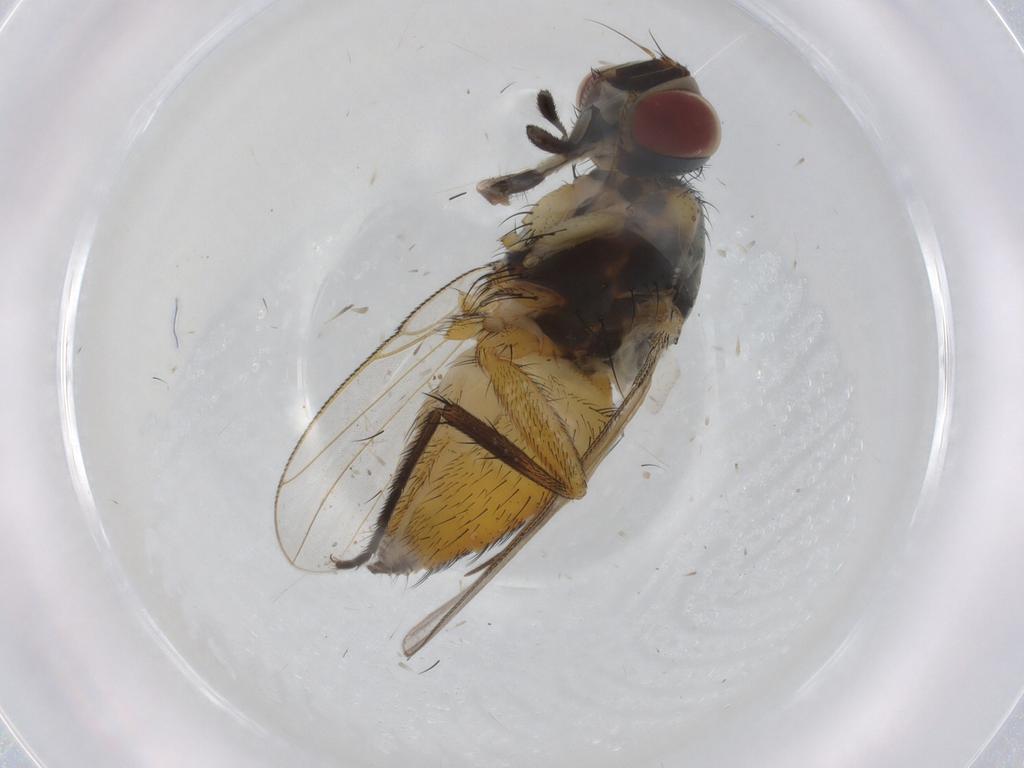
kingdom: Animalia
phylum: Arthropoda
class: Insecta
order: Diptera
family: Muscidae
